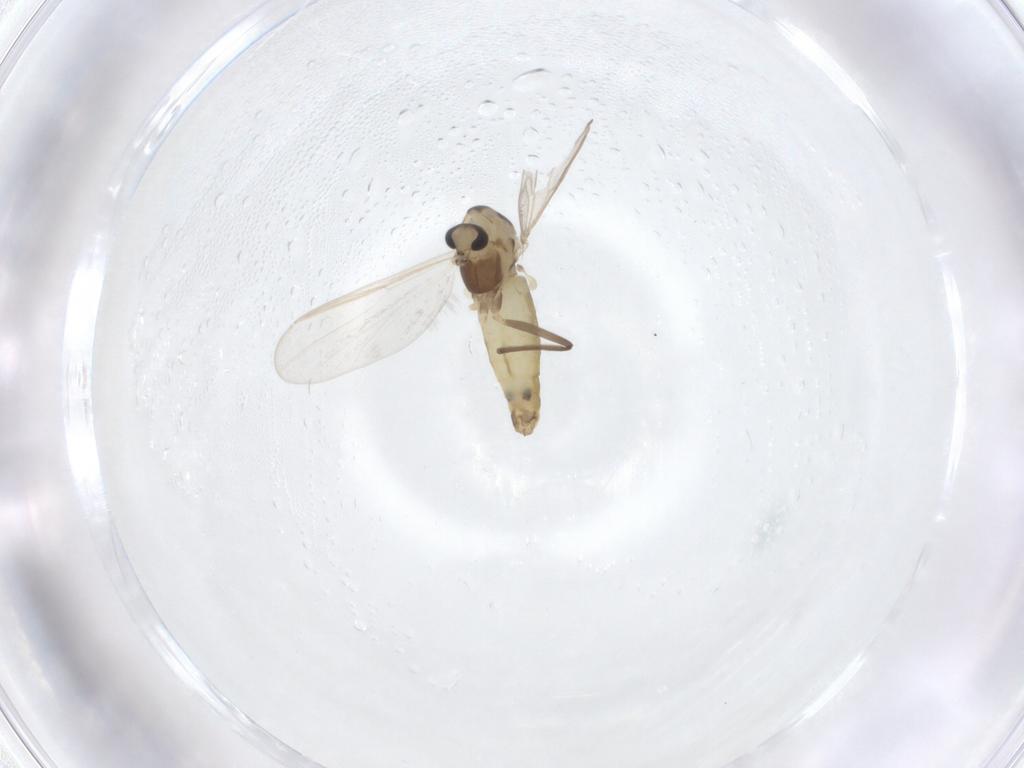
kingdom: Animalia
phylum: Arthropoda
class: Insecta
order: Diptera
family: Chironomidae
